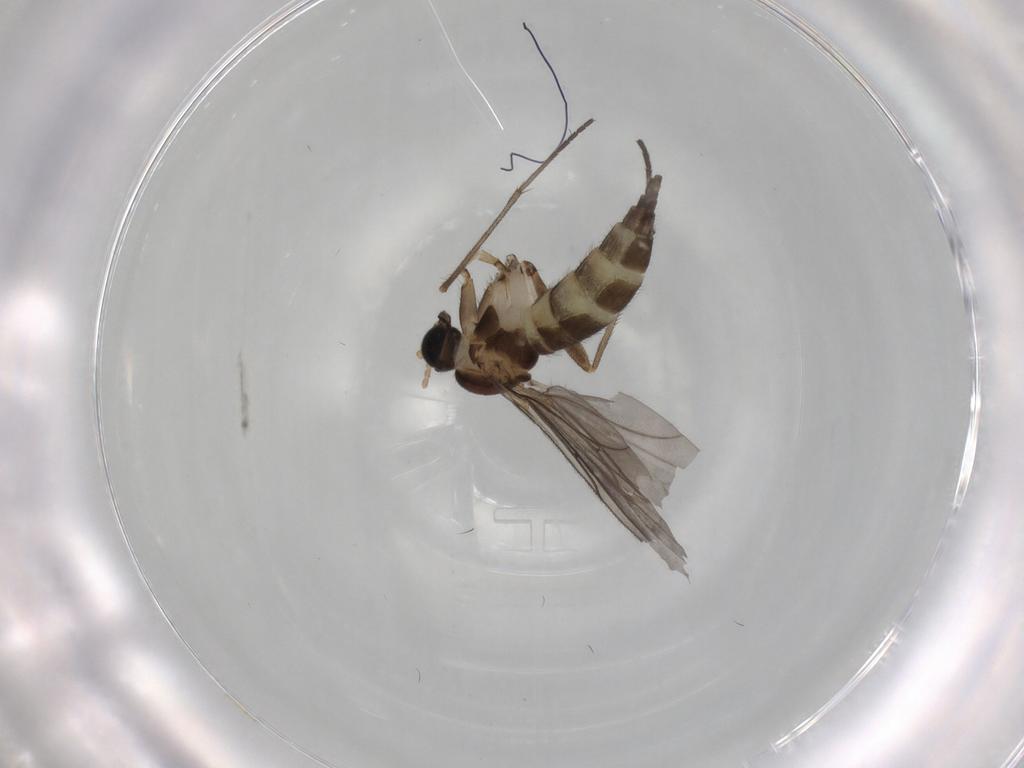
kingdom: Animalia
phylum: Arthropoda
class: Insecta
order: Diptera
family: Sciaridae
